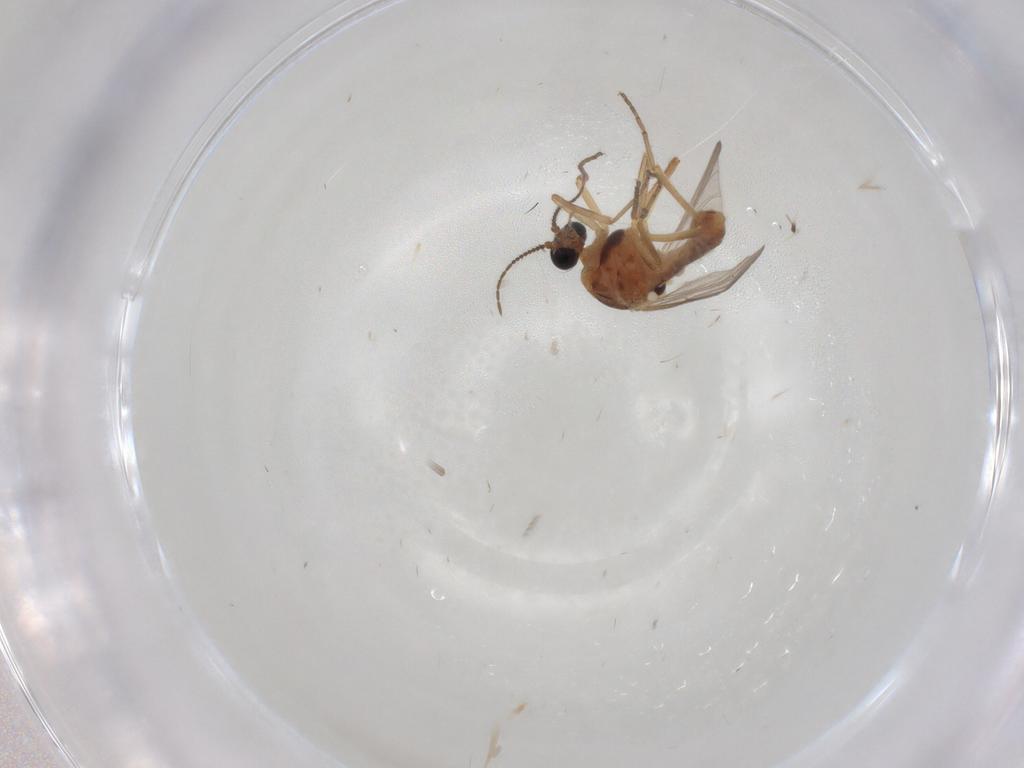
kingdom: Animalia
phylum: Arthropoda
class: Insecta
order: Diptera
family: Ceratopogonidae
